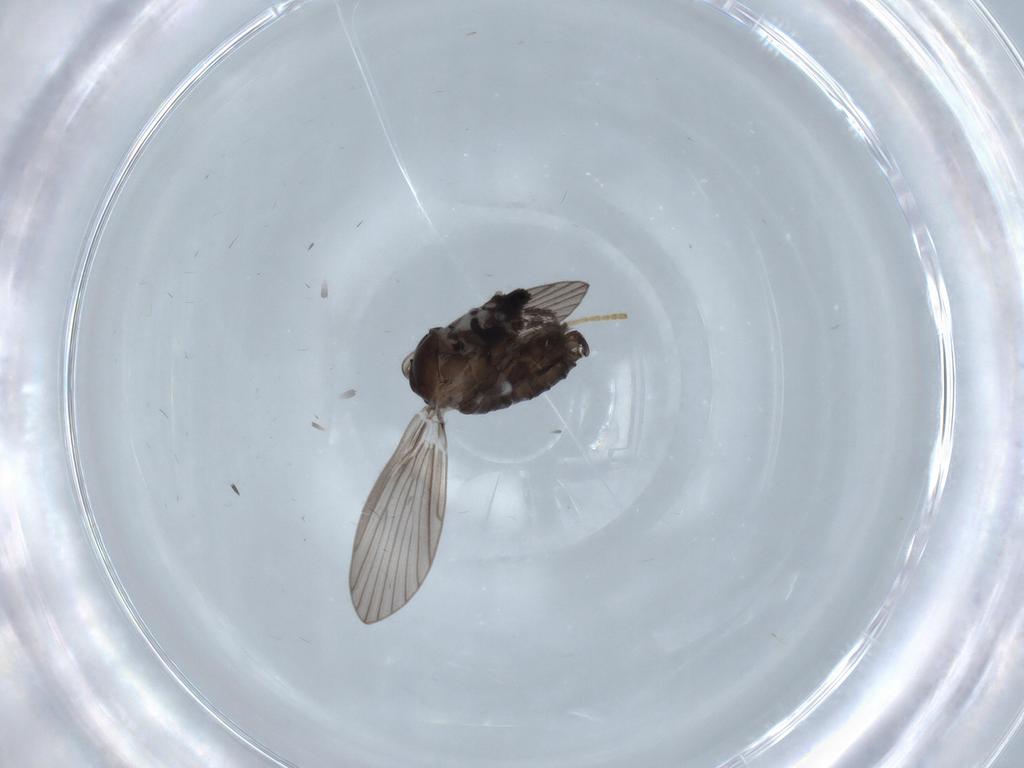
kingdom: Animalia
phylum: Arthropoda
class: Insecta
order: Diptera
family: Psychodidae
